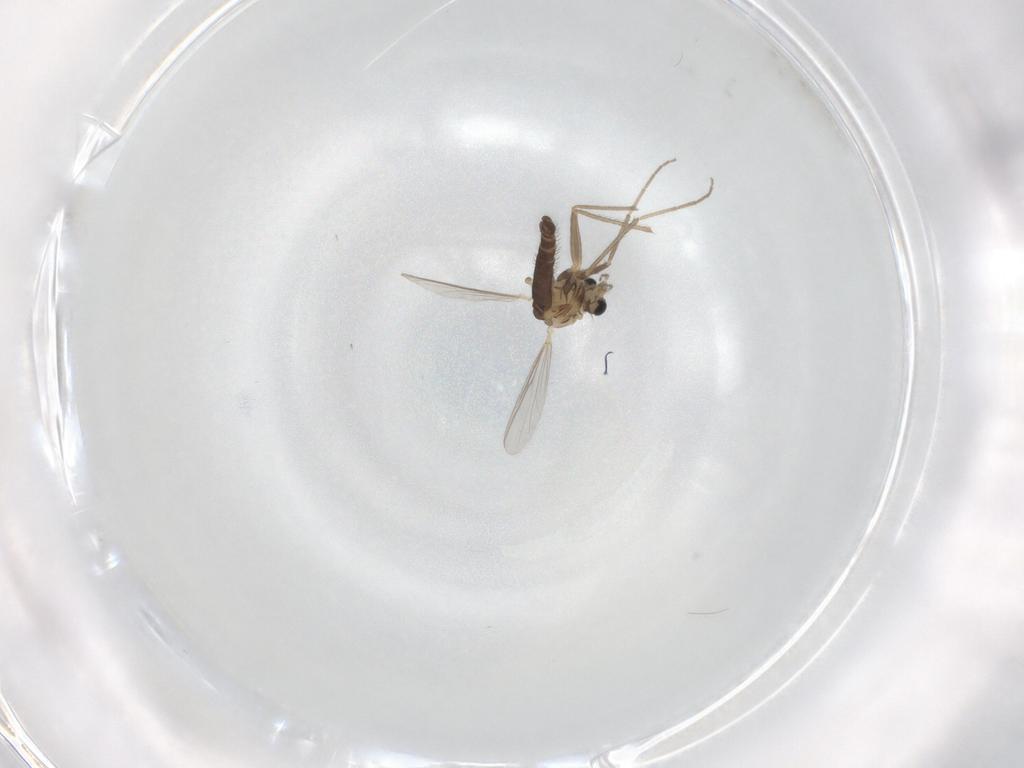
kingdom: Animalia
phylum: Arthropoda
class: Insecta
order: Diptera
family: Chironomidae
